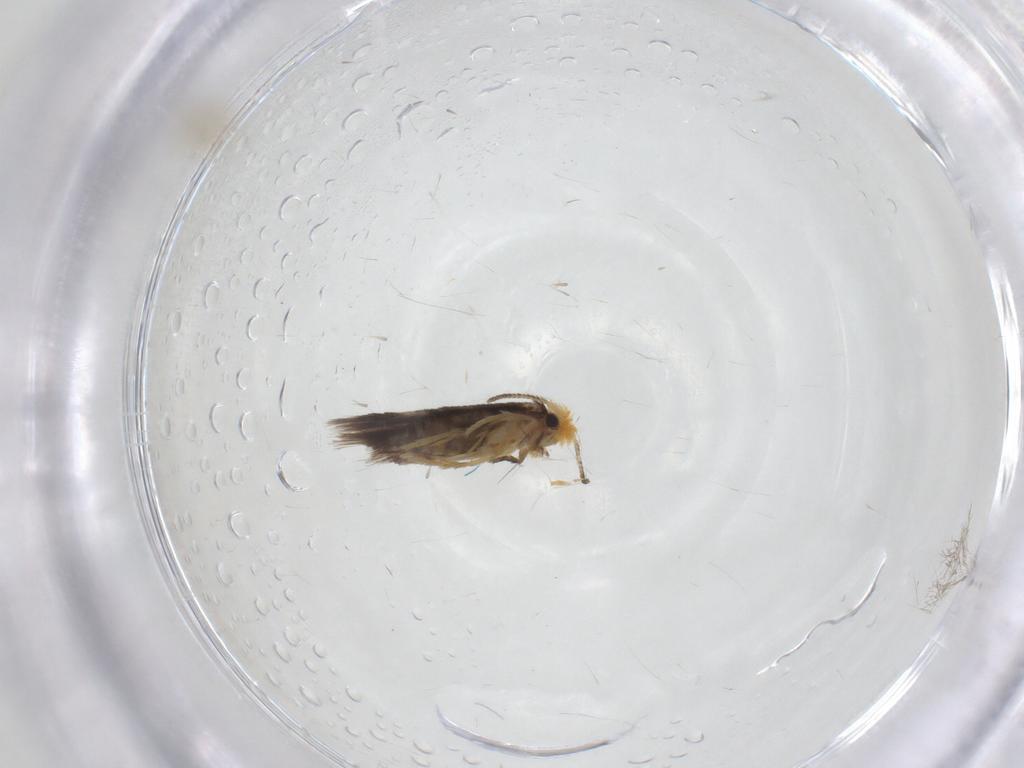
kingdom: Animalia
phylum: Arthropoda
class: Insecta
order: Lepidoptera
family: Nepticulidae
